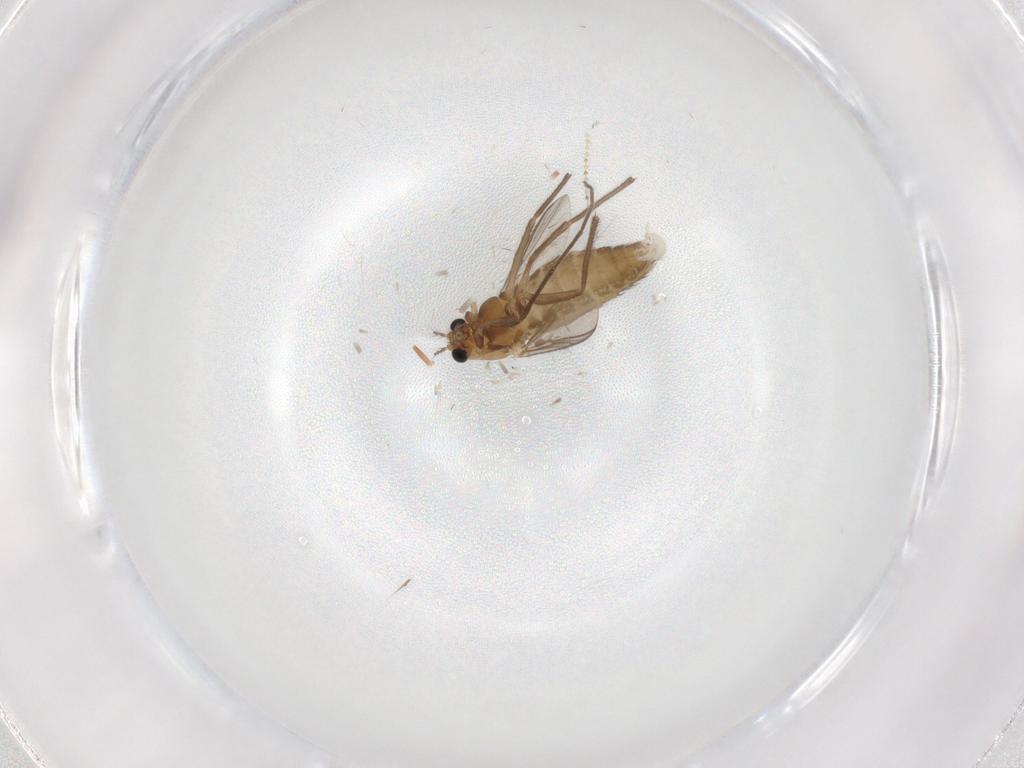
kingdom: Animalia
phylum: Arthropoda
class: Insecta
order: Diptera
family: Chironomidae
